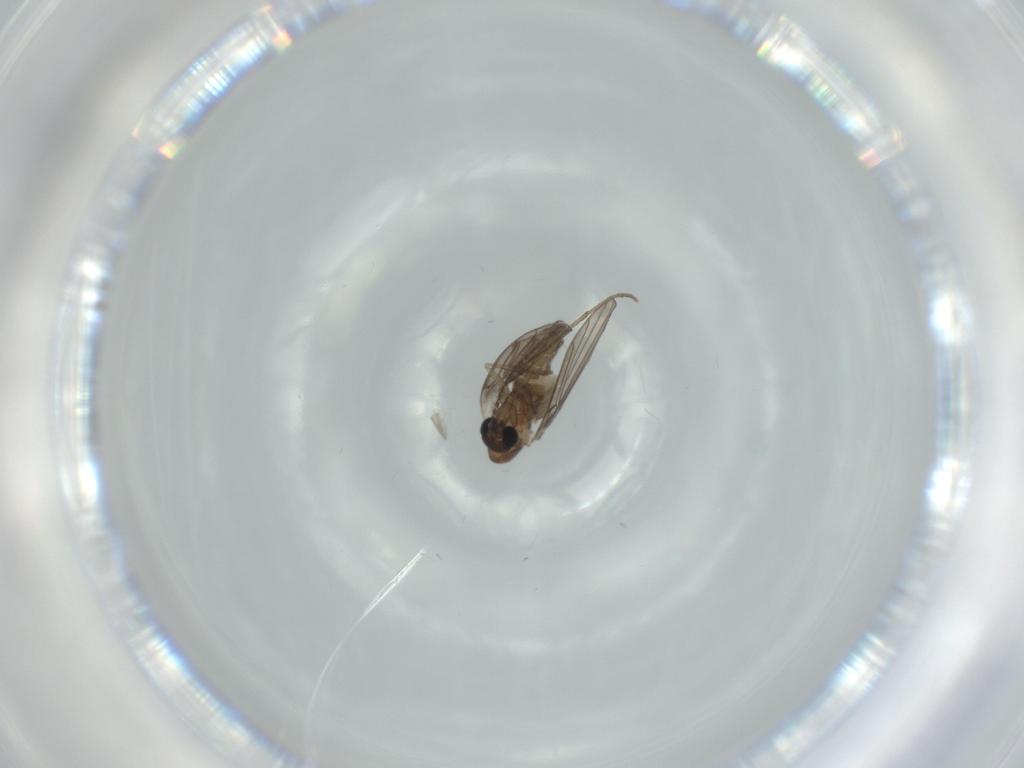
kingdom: Animalia
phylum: Arthropoda
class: Insecta
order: Diptera
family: Psychodidae
